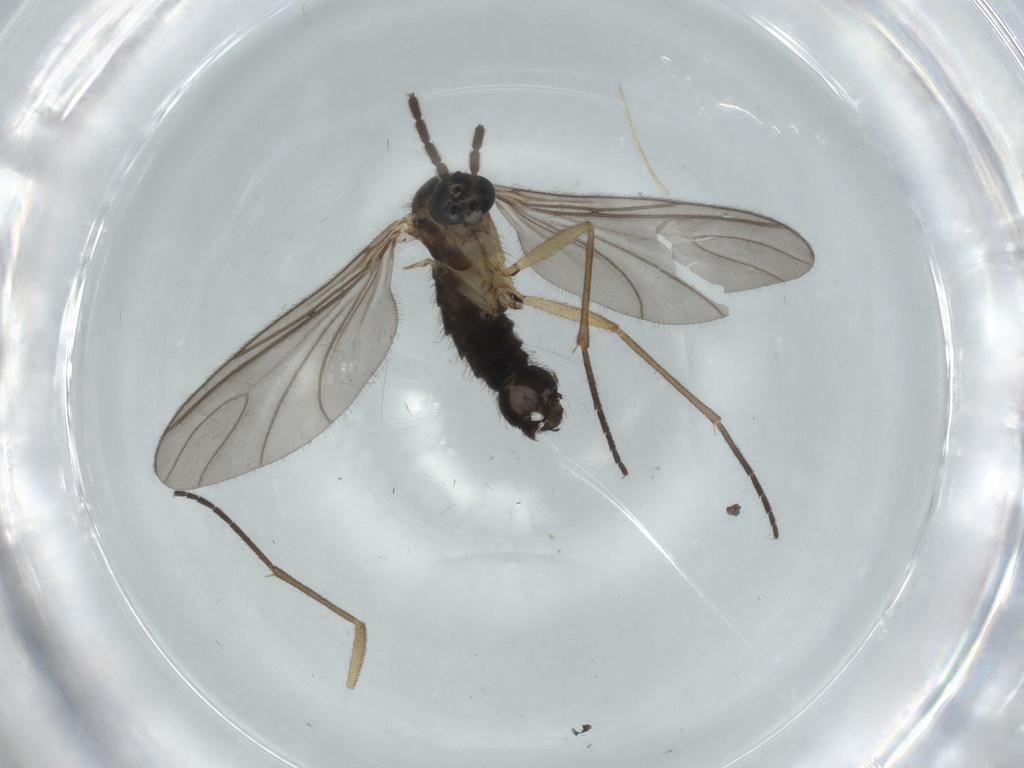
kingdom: Animalia
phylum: Arthropoda
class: Insecta
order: Diptera
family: Sciaridae
